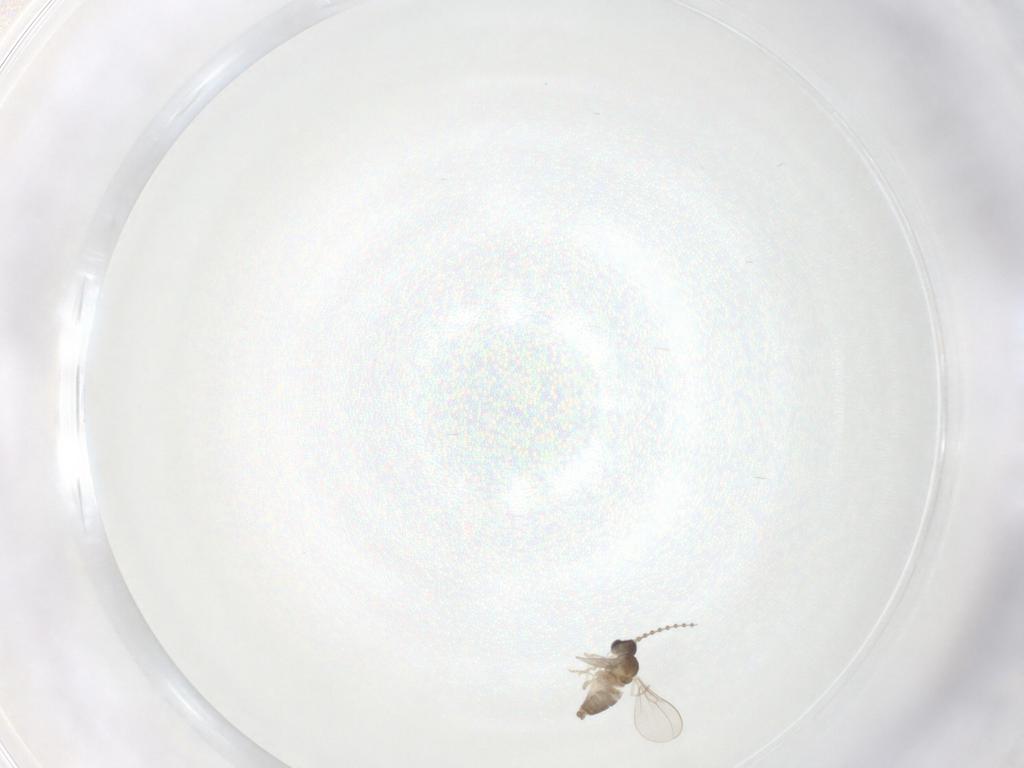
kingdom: Animalia
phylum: Arthropoda
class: Insecta
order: Diptera
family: Cecidomyiidae
